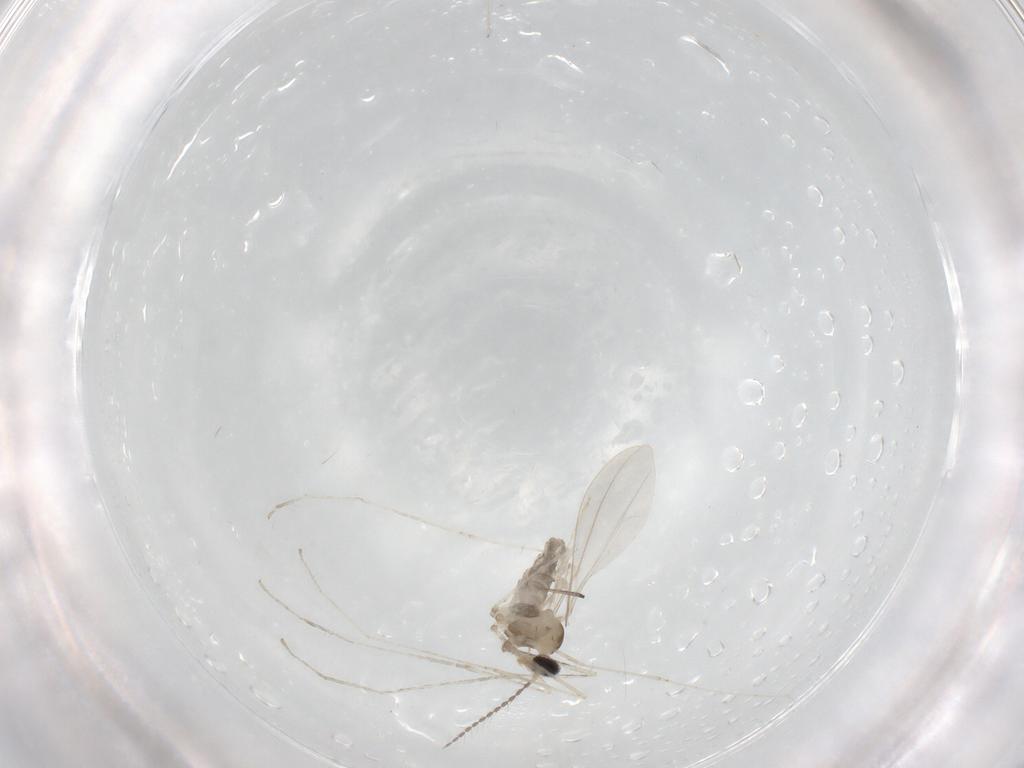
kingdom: Animalia
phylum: Arthropoda
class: Insecta
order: Diptera
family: Cecidomyiidae
